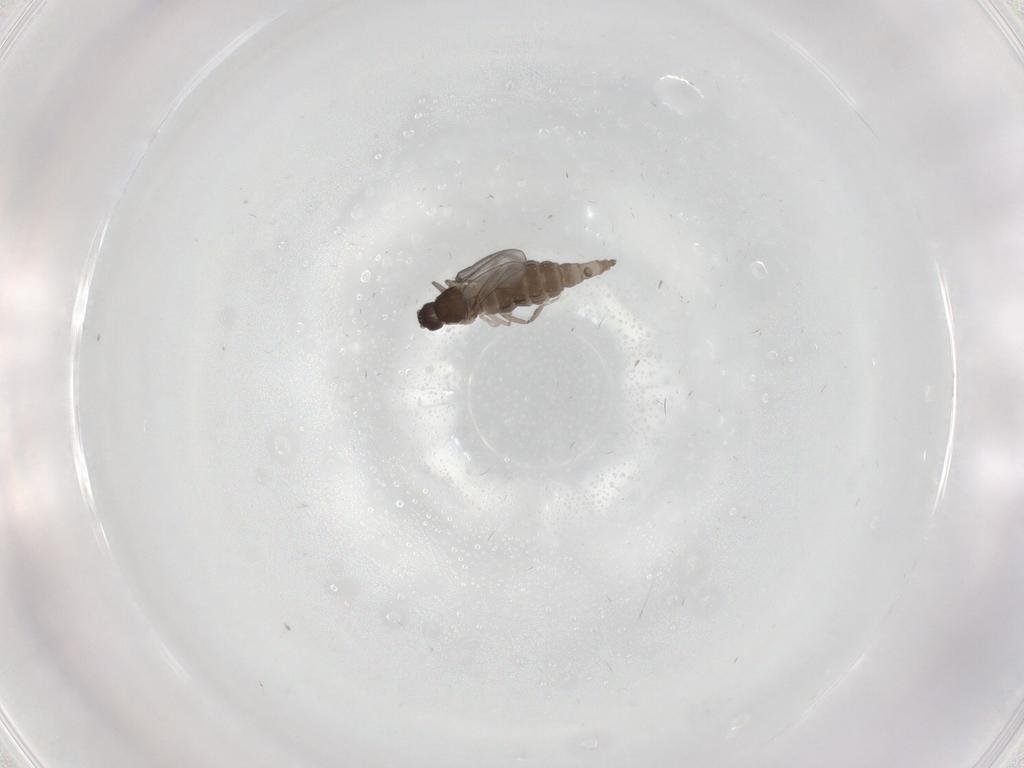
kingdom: Animalia
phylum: Arthropoda
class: Insecta
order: Diptera
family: Cecidomyiidae
